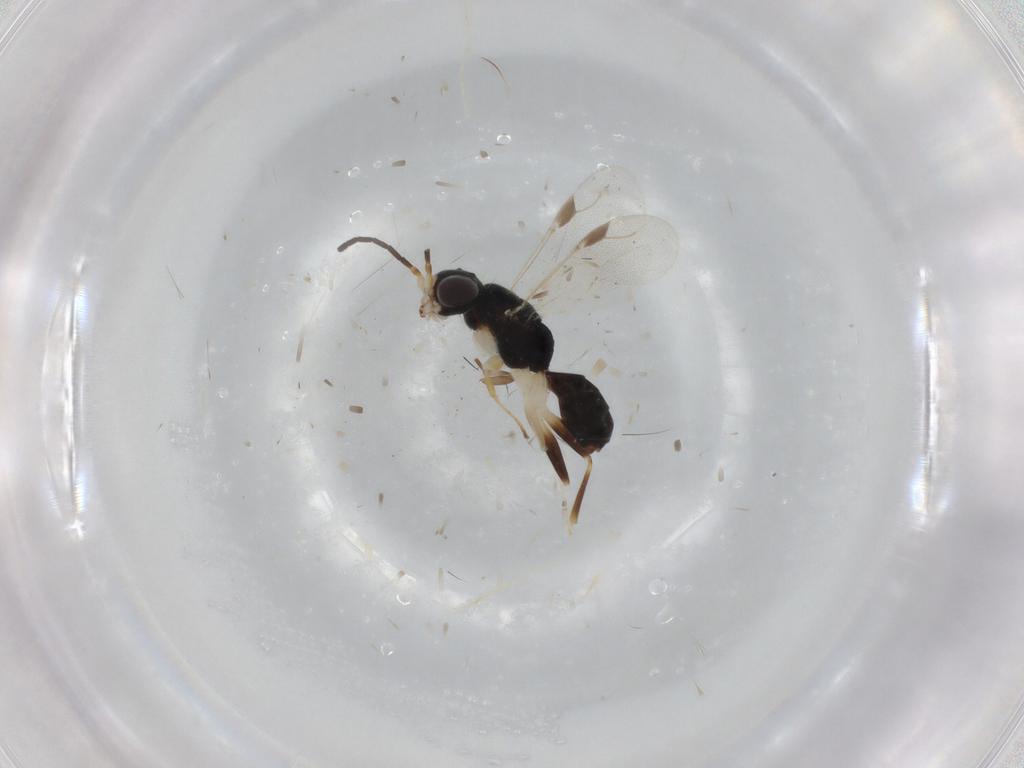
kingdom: Animalia
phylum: Arthropoda
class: Insecta
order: Hymenoptera
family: Dryinidae
